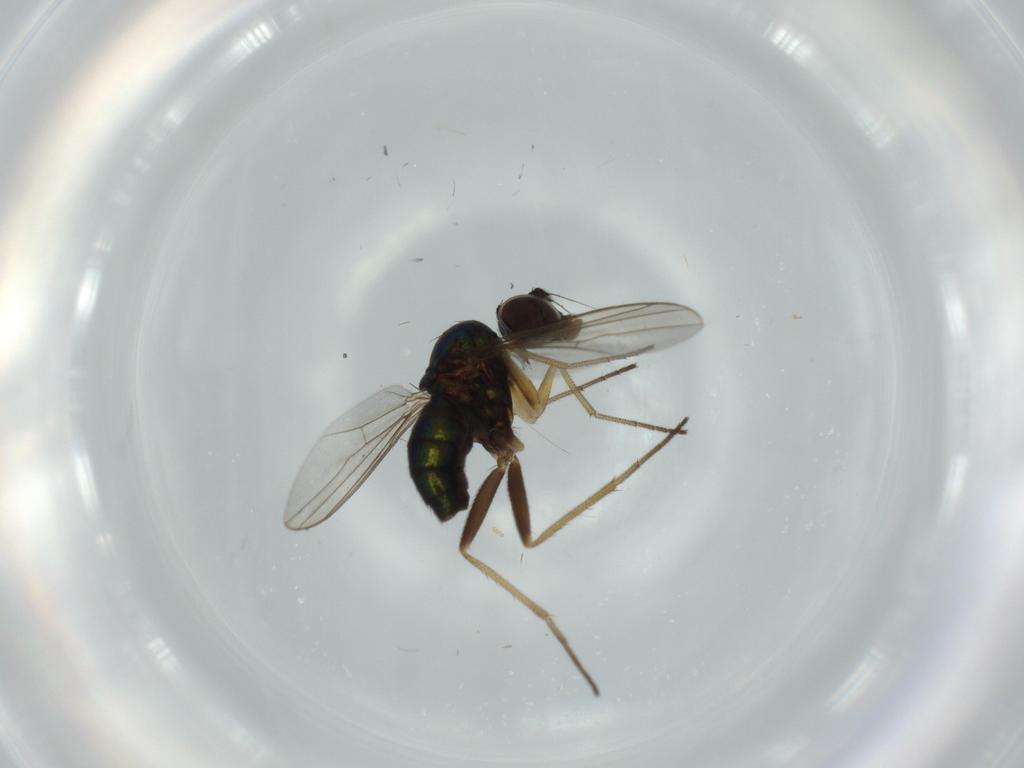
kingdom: Animalia
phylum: Arthropoda
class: Insecta
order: Diptera
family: Dolichopodidae
